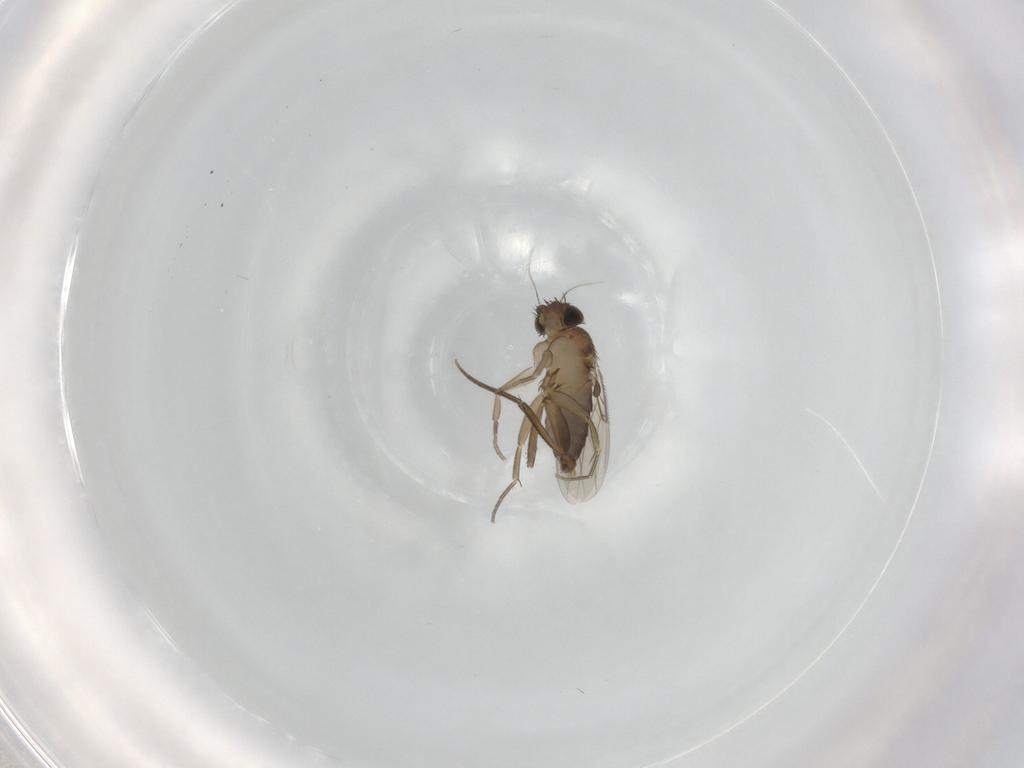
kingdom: Animalia
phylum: Arthropoda
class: Insecta
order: Diptera
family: Phoridae
